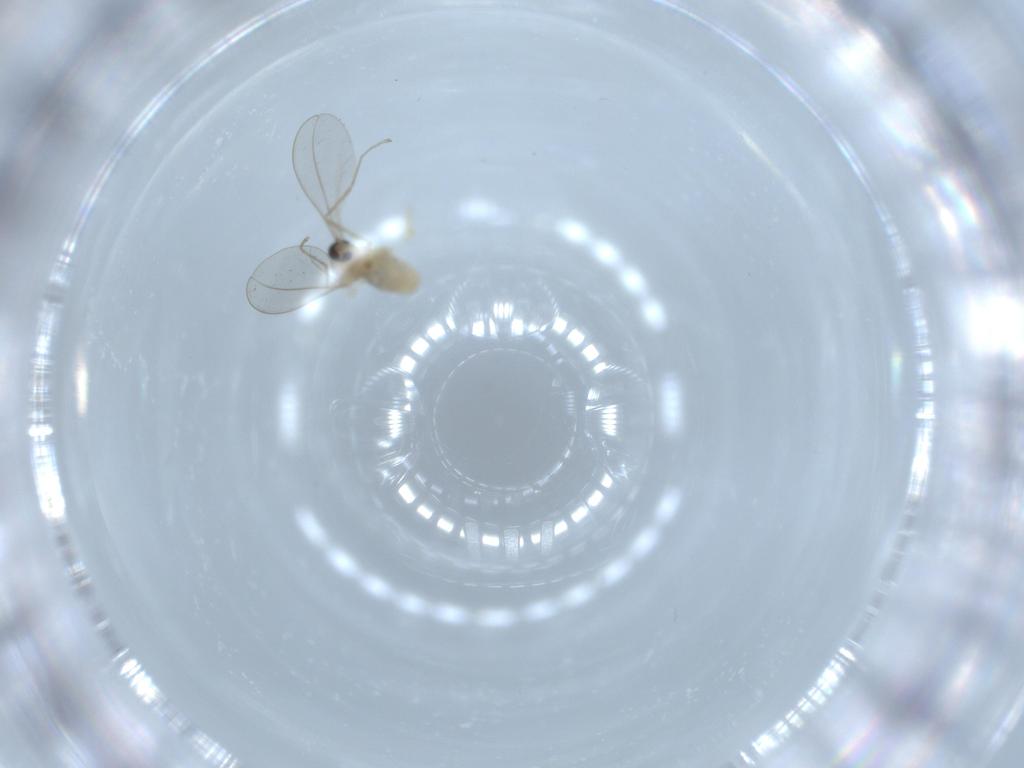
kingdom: Animalia
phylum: Arthropoda
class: Insecta
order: Diptera
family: Cecidomyiidae
